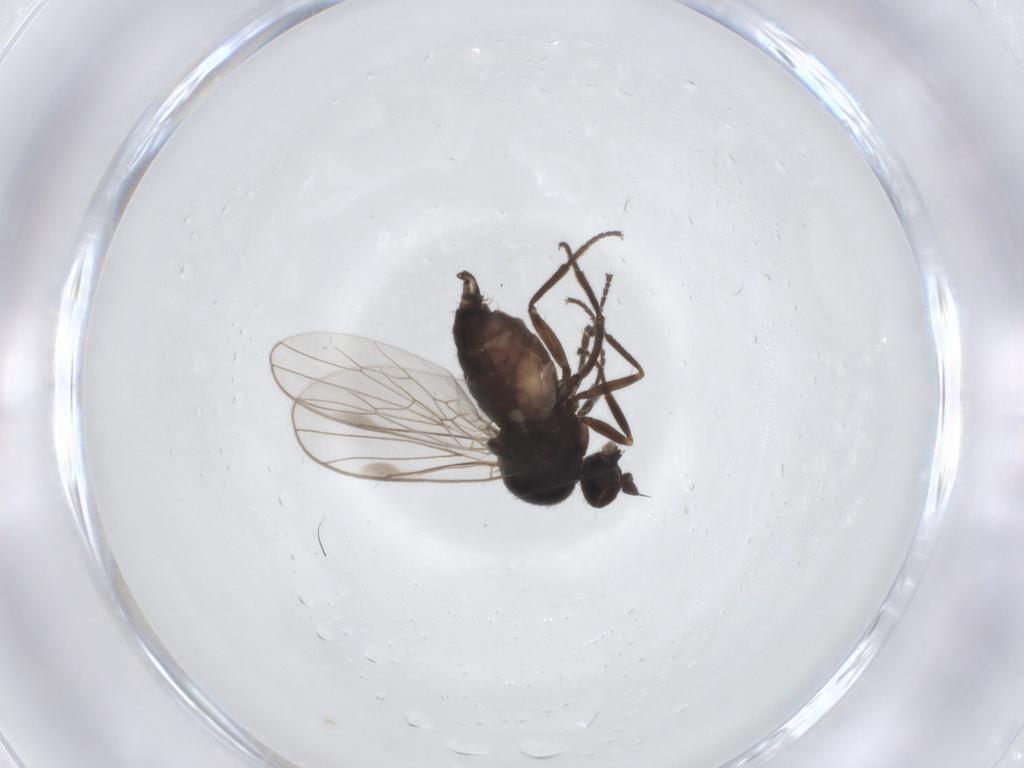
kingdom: Animalia
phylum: Arthropoda
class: Insecta
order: Diptera
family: Hybotidae
